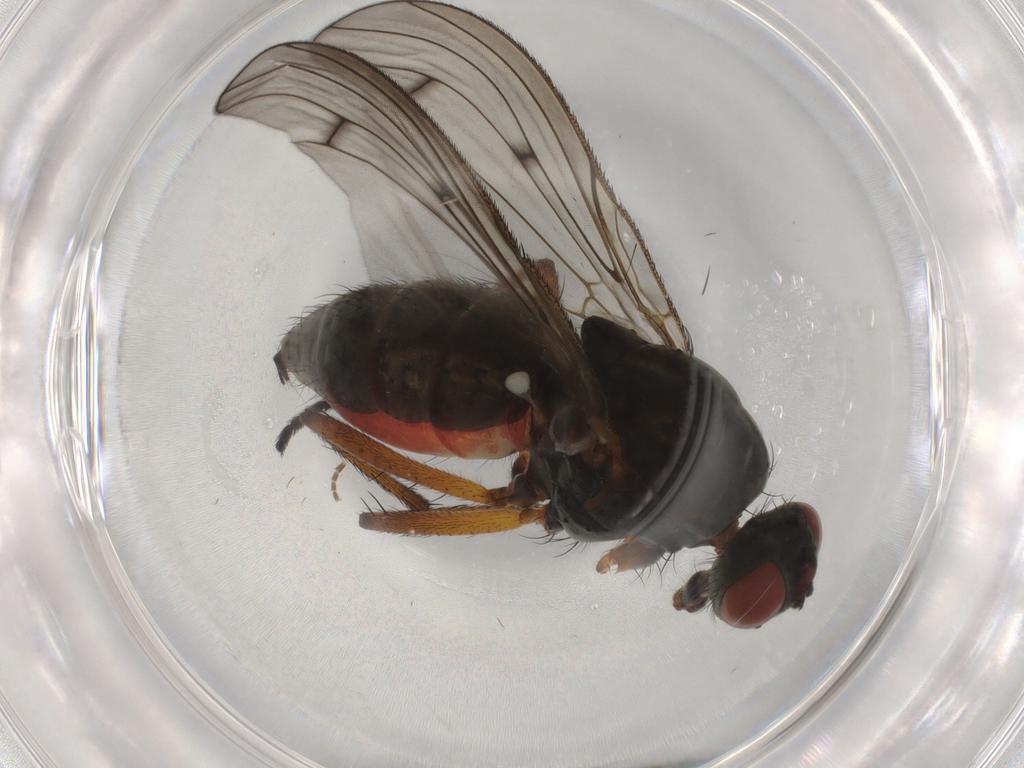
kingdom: Animalia
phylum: Arthropoda
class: Insecta
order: Diptera
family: Anthomyiidae
